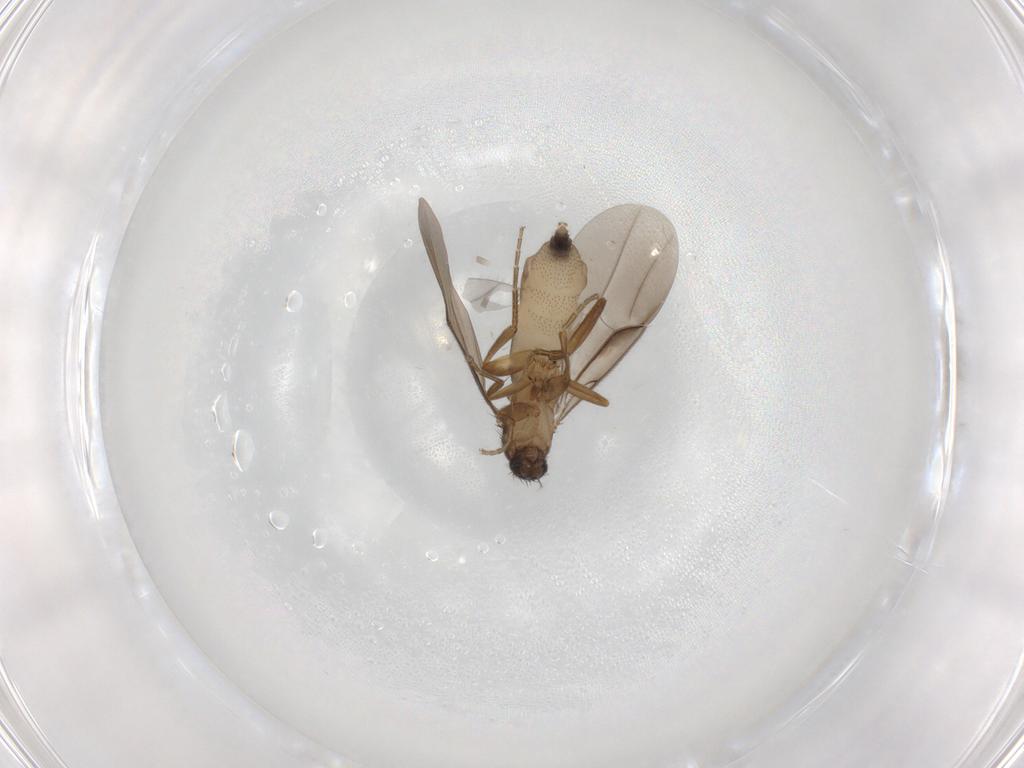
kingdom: Animalia
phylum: Arthropoda
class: Insecta
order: Diptera
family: Phoridae
